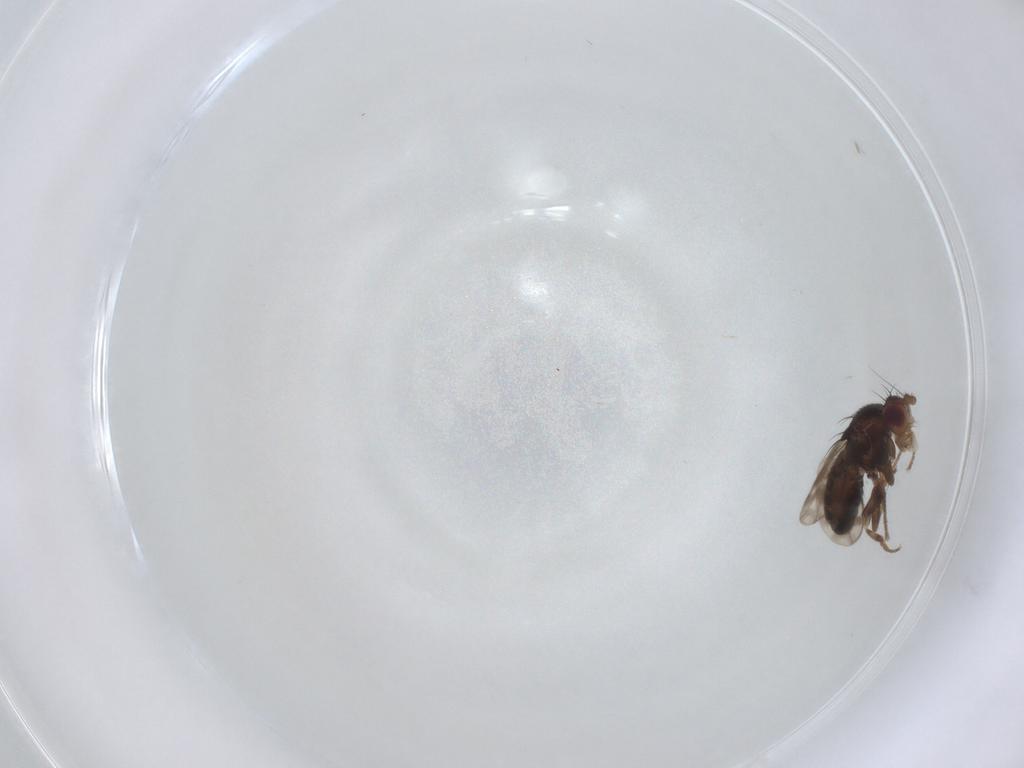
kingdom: Animalia
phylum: Arthropoda
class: Insecta
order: Diptera
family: Sphaeroceridae
